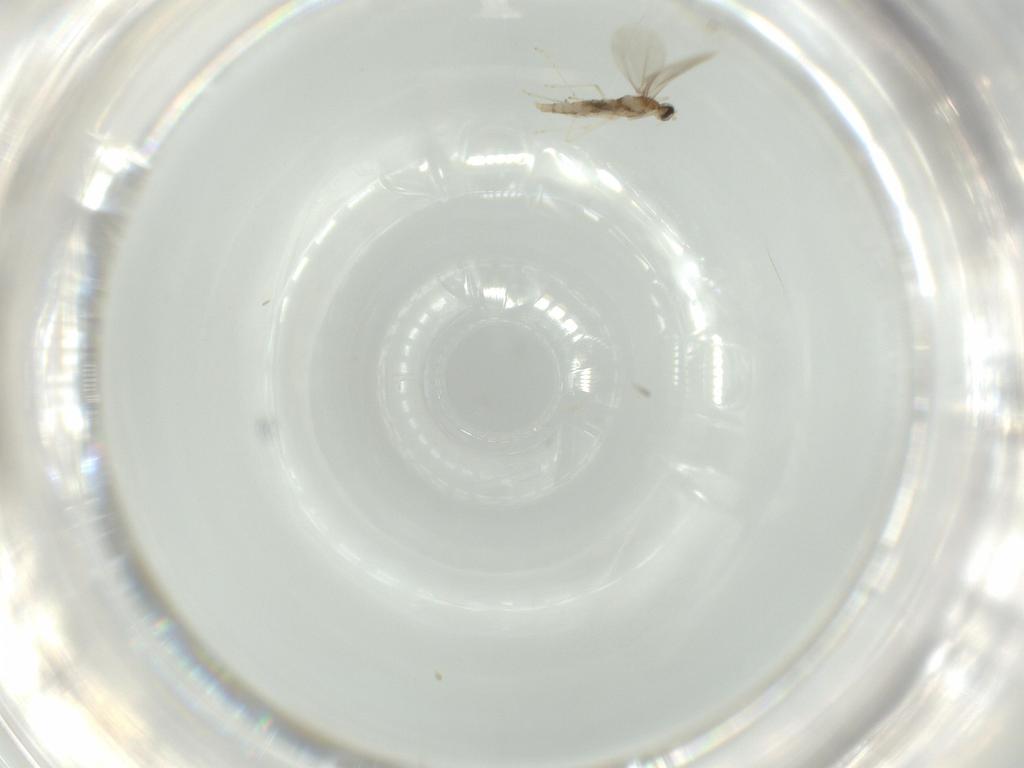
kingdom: Animalia
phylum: Arthropoda
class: Insecta
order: Diptera
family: Cecidomyiidae
